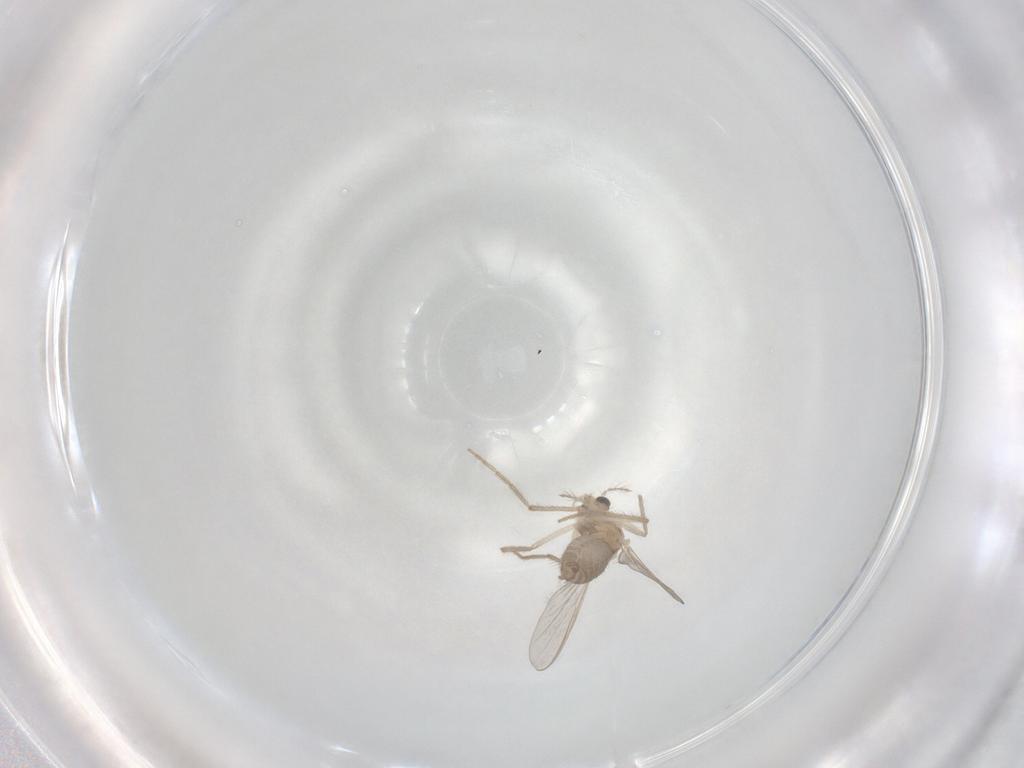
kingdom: Animalia
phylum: Arthropoda
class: Insecta
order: Diptera
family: Chironomidae
